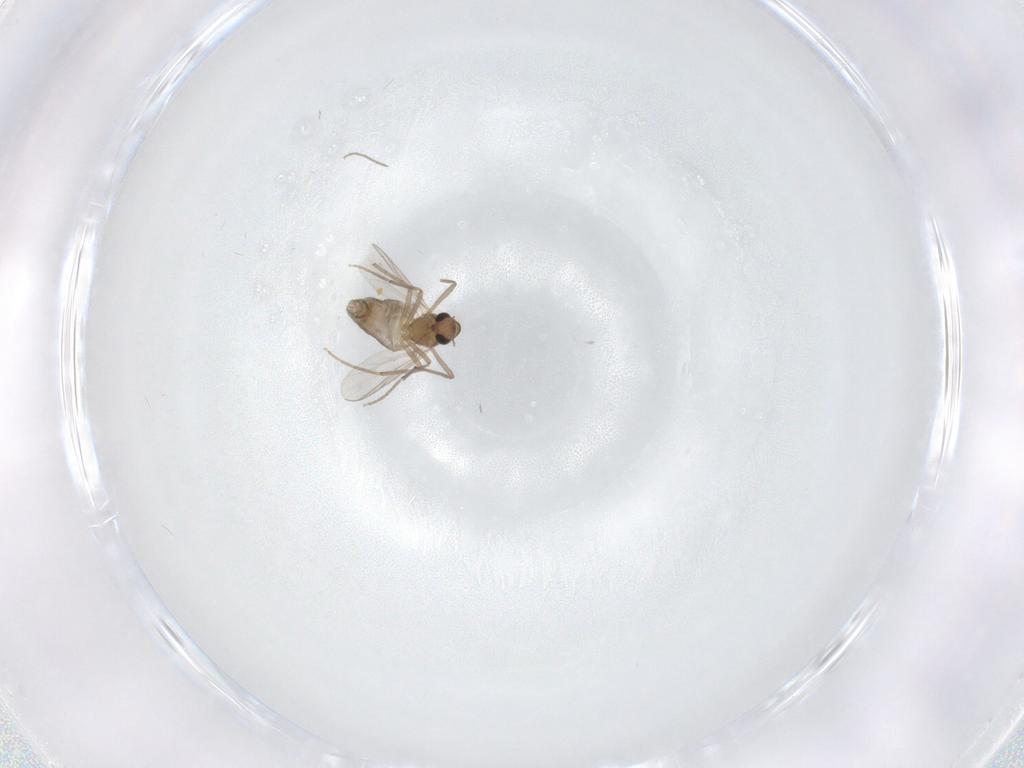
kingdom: Animalia
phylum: Arthropoda
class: Insecta
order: Diptera
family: Chironomidae
